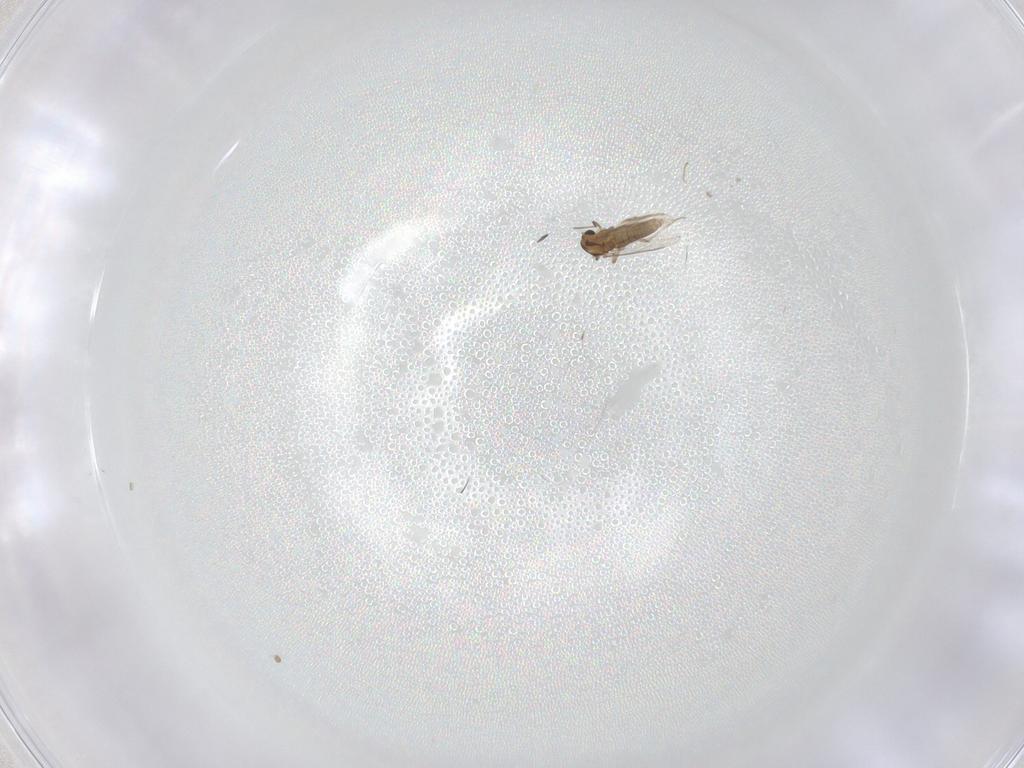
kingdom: Animalia
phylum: Arthropoda
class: Insecta
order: Diptera
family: Chironomidae
